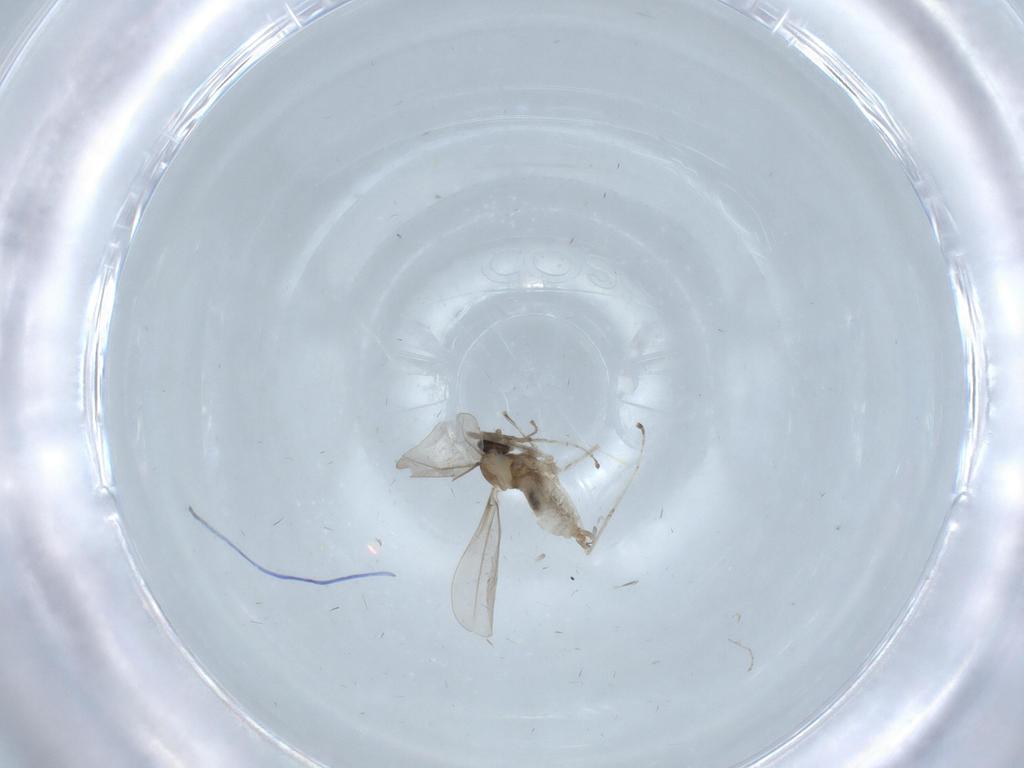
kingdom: Animalia
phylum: Arthropoda
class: Insecta
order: Diptera
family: Cecidomyiidae
